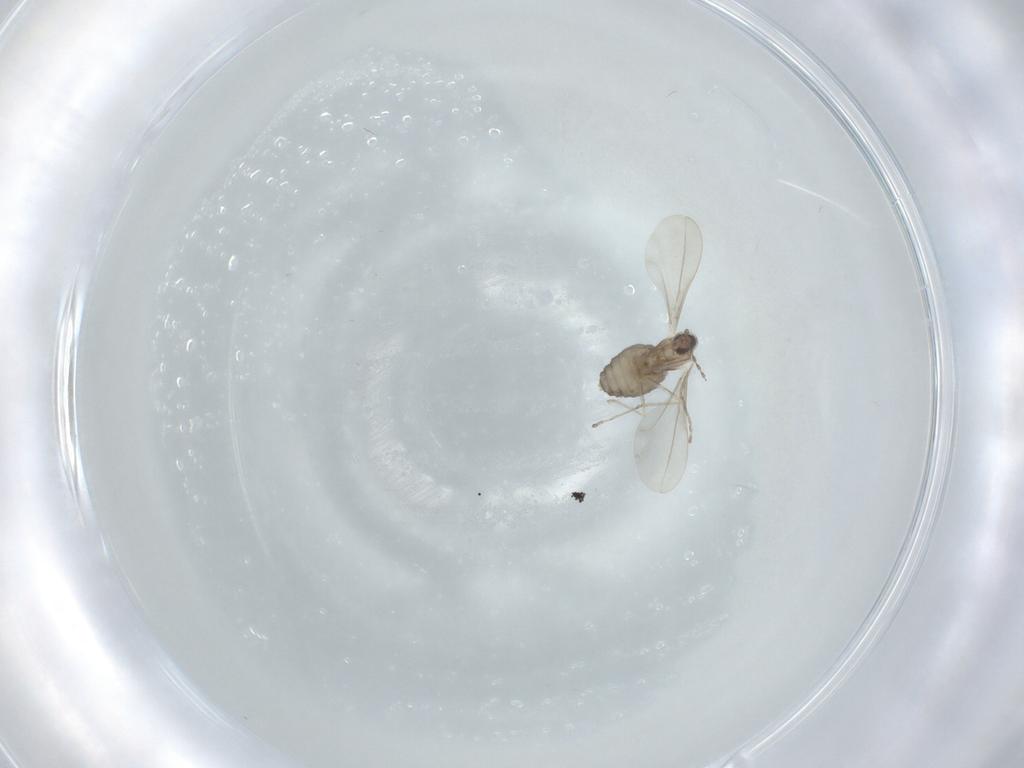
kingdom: Animalia
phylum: Arthropoda
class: Insecta
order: Diptera
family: Cecidomyiidae
